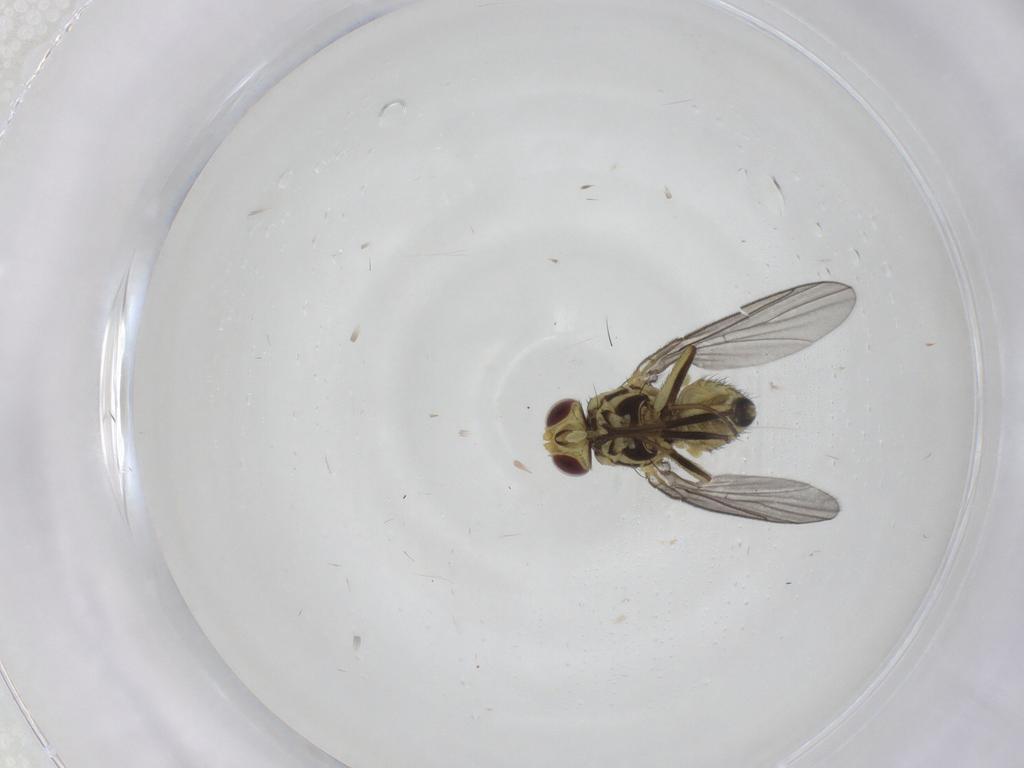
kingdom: Animalia
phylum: Arthropoda
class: Insecta
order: Diptera
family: Agromyzidae
